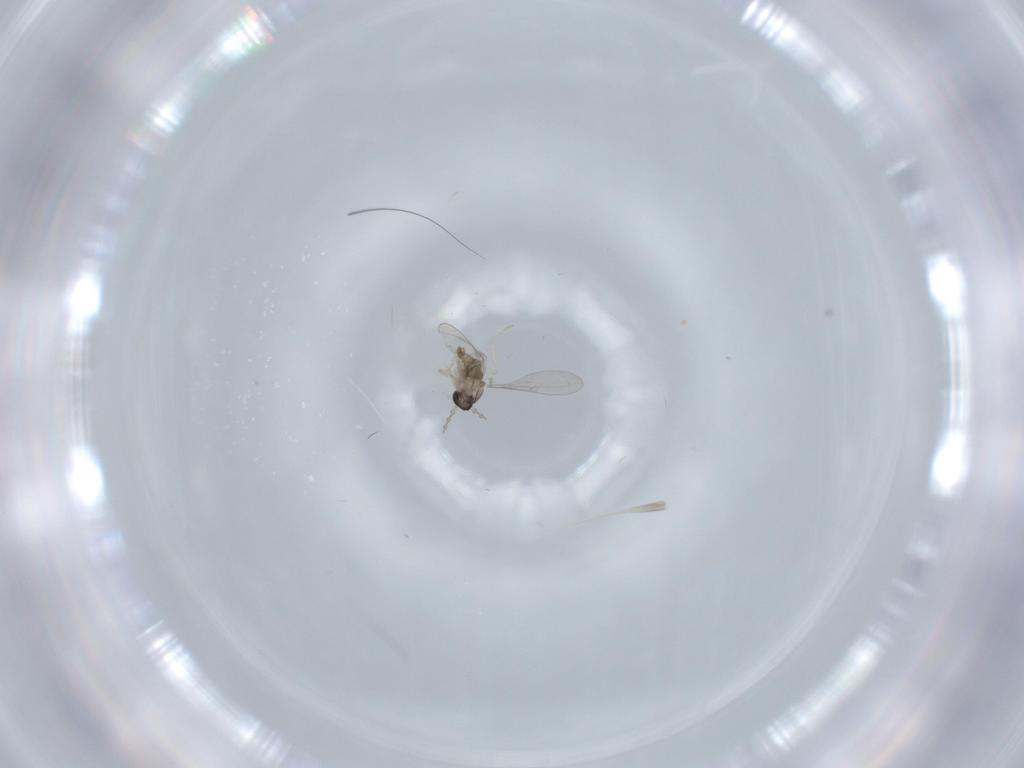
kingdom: Animalia
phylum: Arthropoda
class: Insecta
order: Diptera
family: Cecidomyiidae
